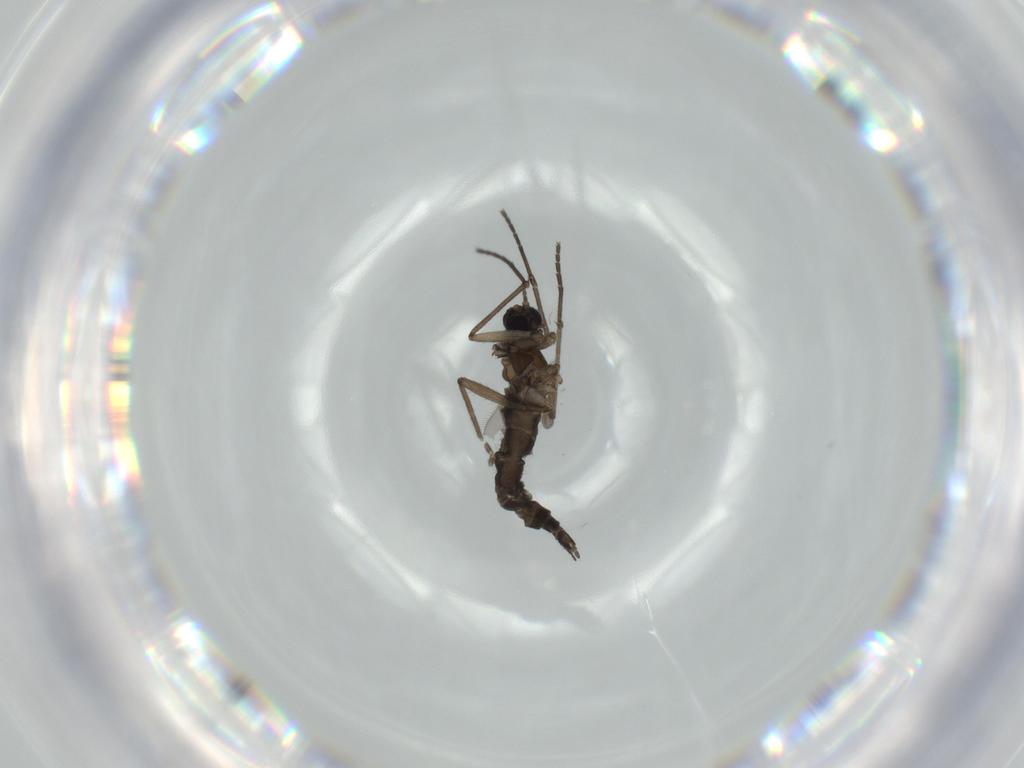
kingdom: Animalia
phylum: Arthropoda
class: Insecta
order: Diptera
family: Sciaridae
